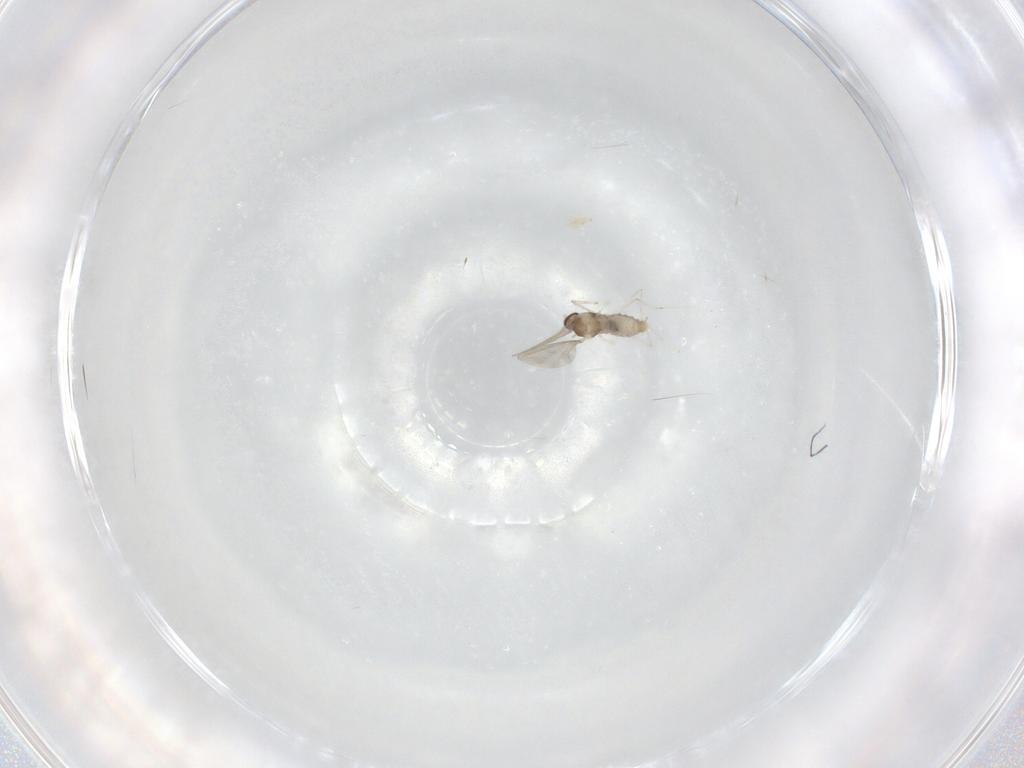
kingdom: Animalia
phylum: Arthropoda
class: Insecta
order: Diptera
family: Cecidomyiidae
